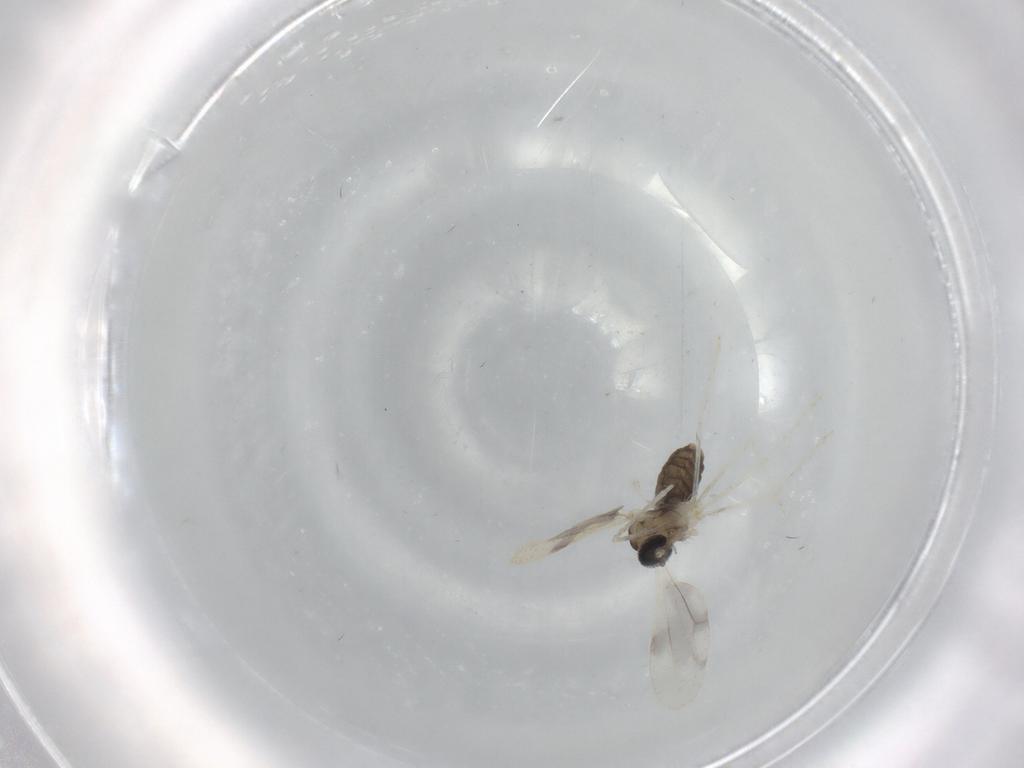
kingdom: Animalia
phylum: Arthropoda
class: Insecta
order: Diptera
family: Cecidomyiidae
